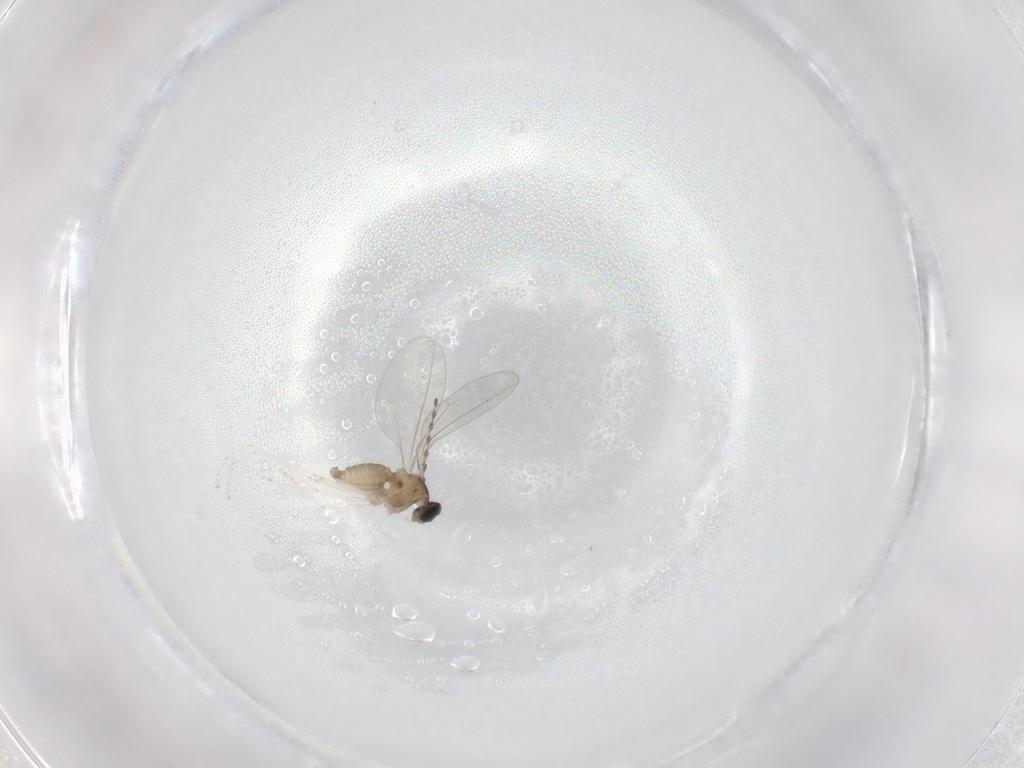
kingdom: Animalia
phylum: Arthropoda
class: Insecta
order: Diptera
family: Cecidomyiidae
